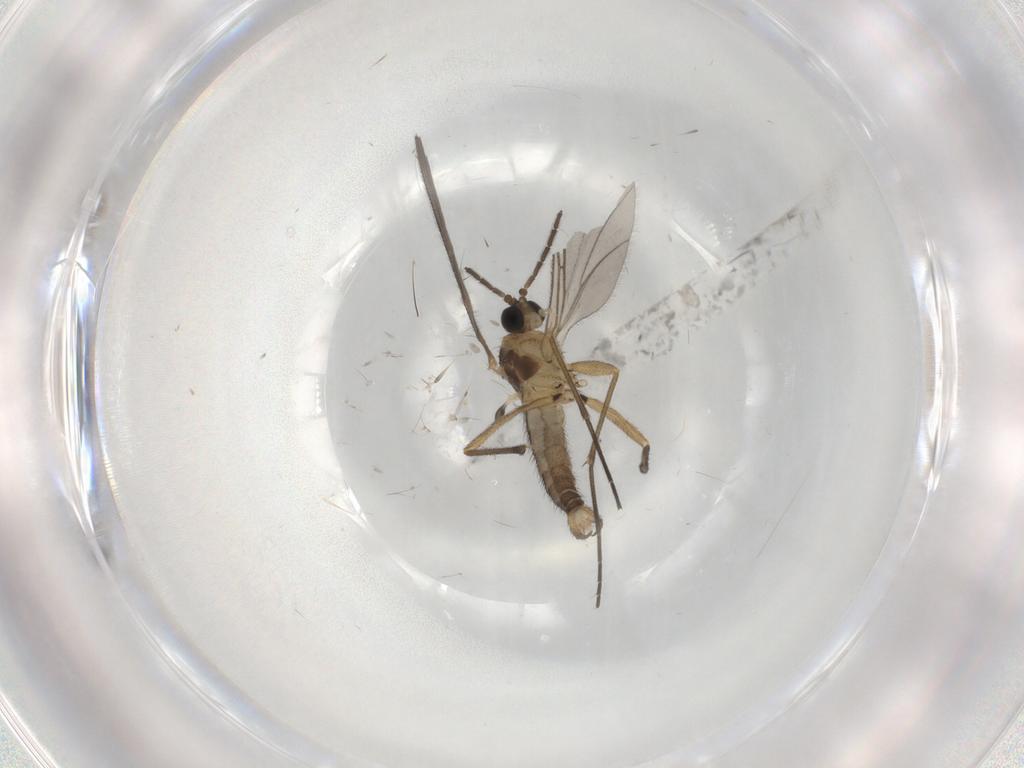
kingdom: Animalia
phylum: Arthropoda
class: Insecta
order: Diptera
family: Sciaridae
